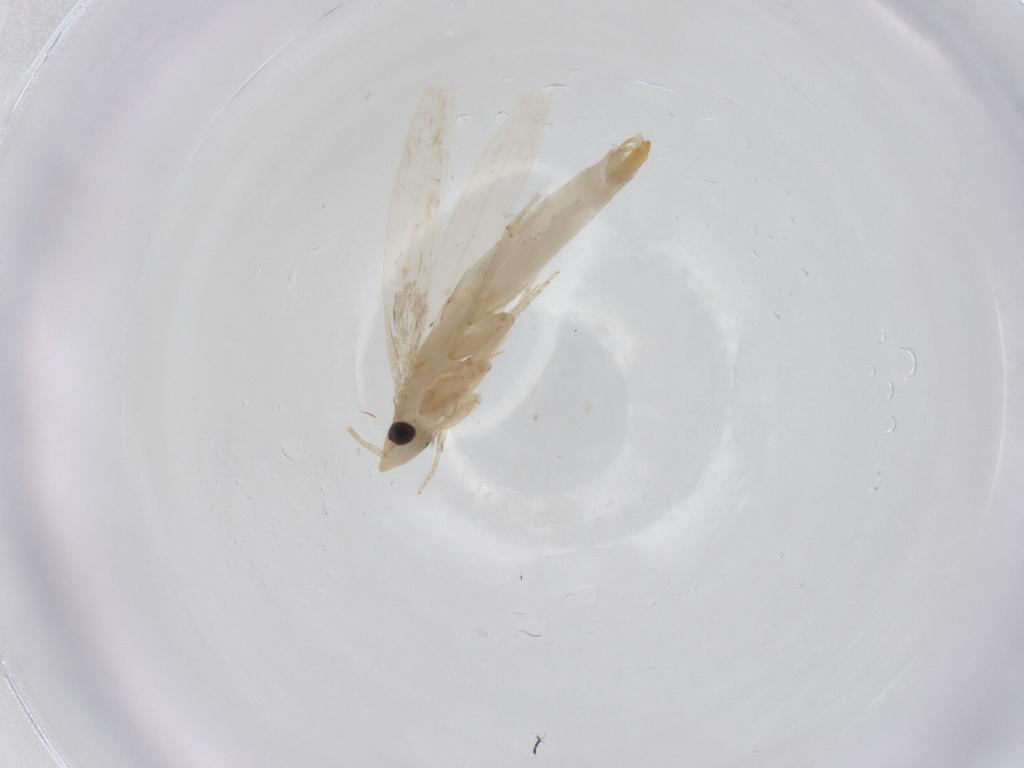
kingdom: Animalia
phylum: Arthropoda
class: Insecta
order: Lepidoptera
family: Tineidae
